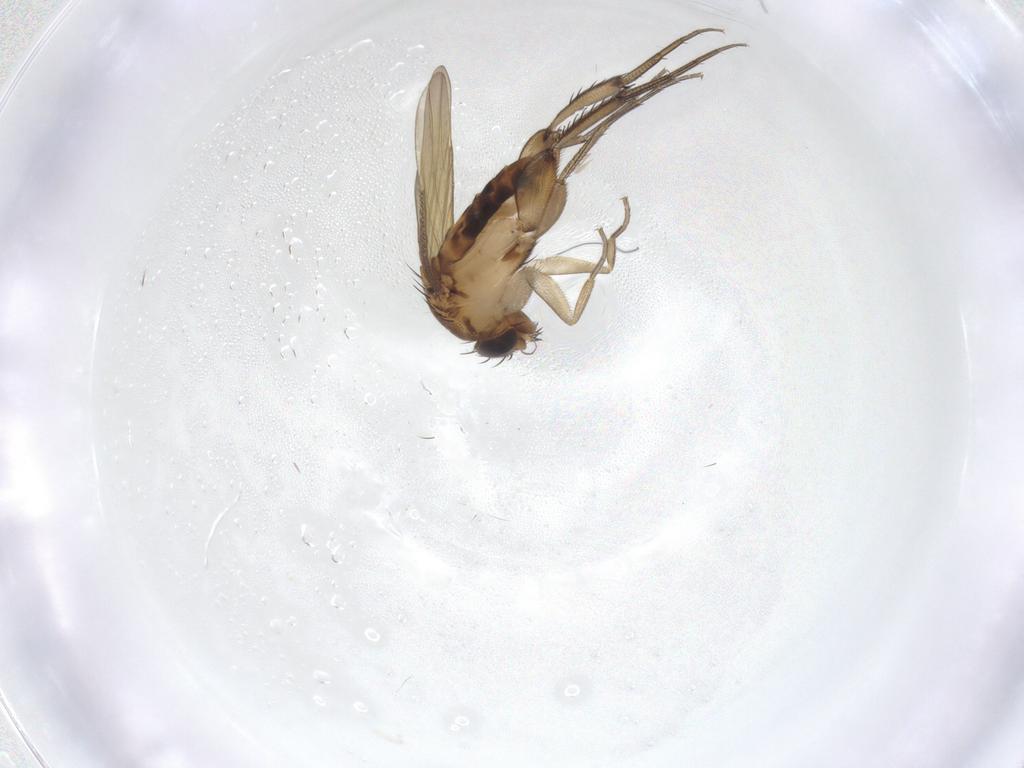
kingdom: Animalia
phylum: Arthropoda
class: Insecta
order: Diptera
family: Phoridae
